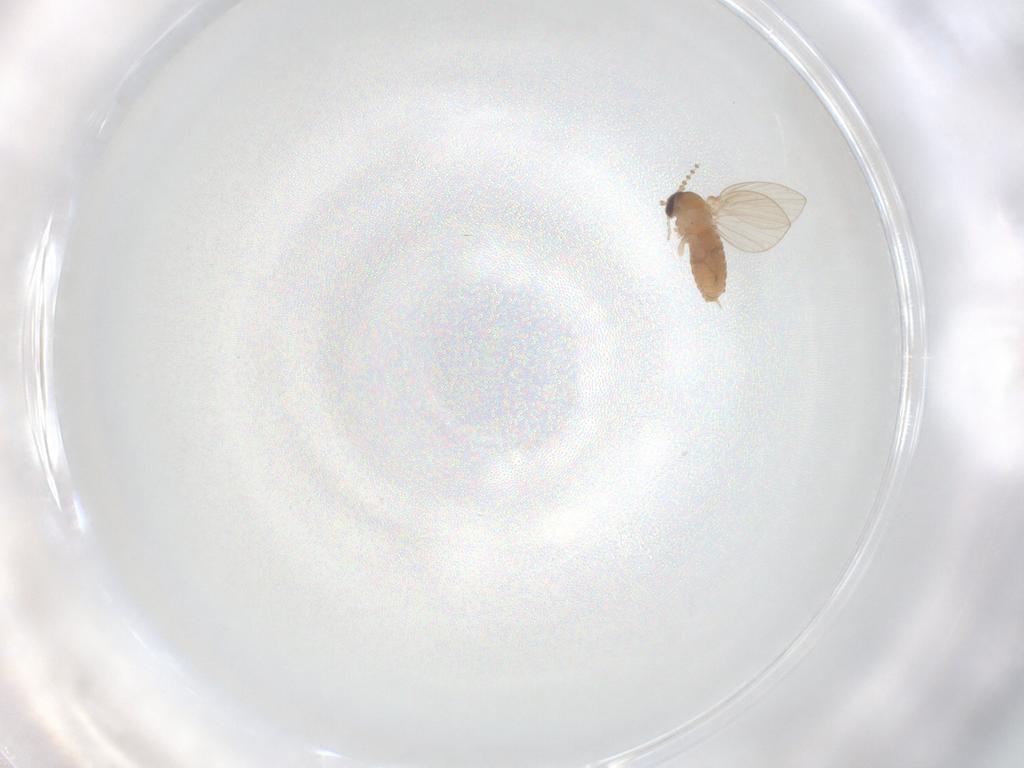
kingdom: Animalia
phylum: Arthropoda
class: Insecta
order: Diptera
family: Psychodidae
